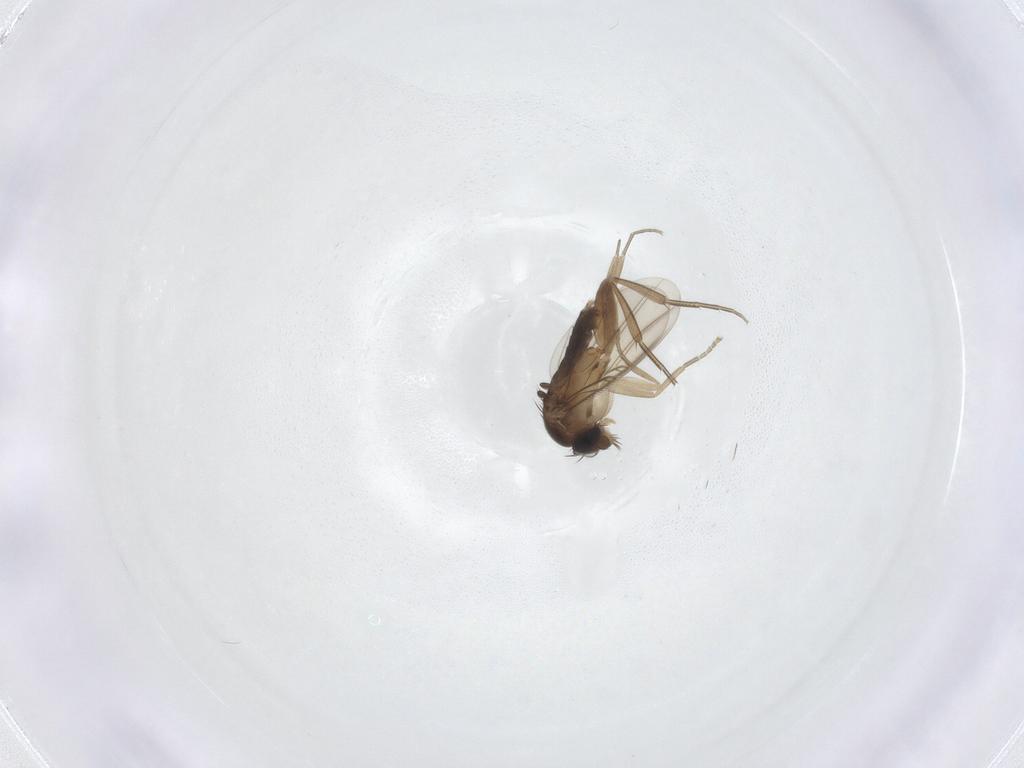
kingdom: Animalia
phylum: Arthropoda
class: Insecta
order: Diptera
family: Phoridae
